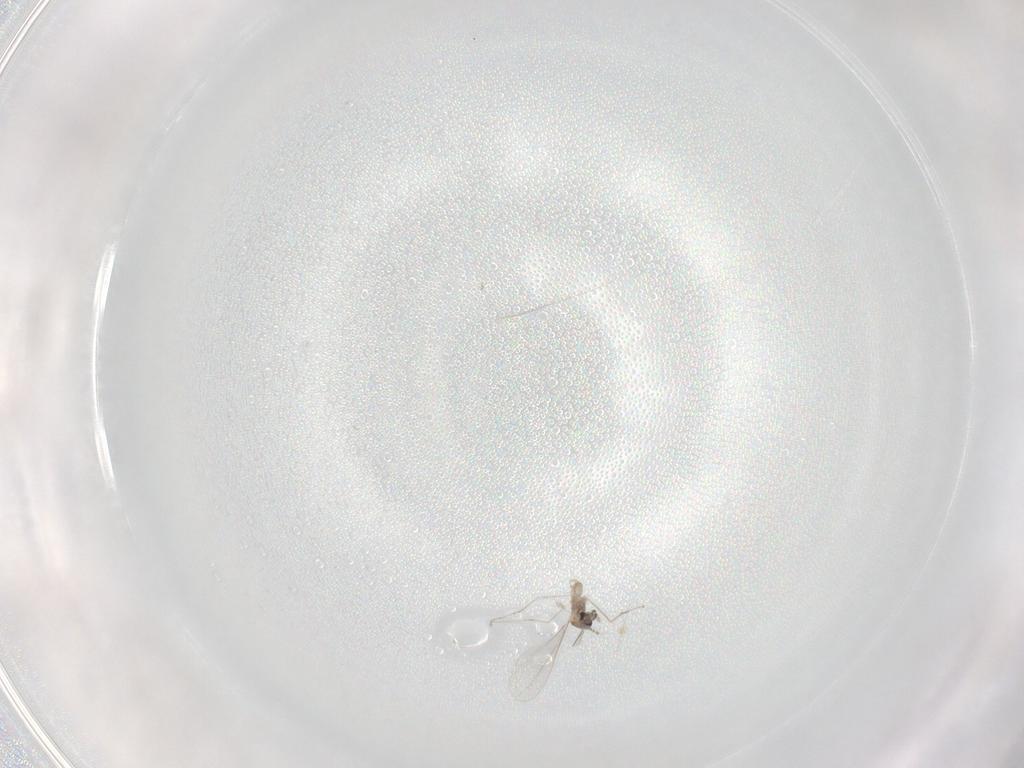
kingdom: Animalia
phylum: Arthropoda
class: Insecta
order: Diptera
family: Cecidomyiidae
